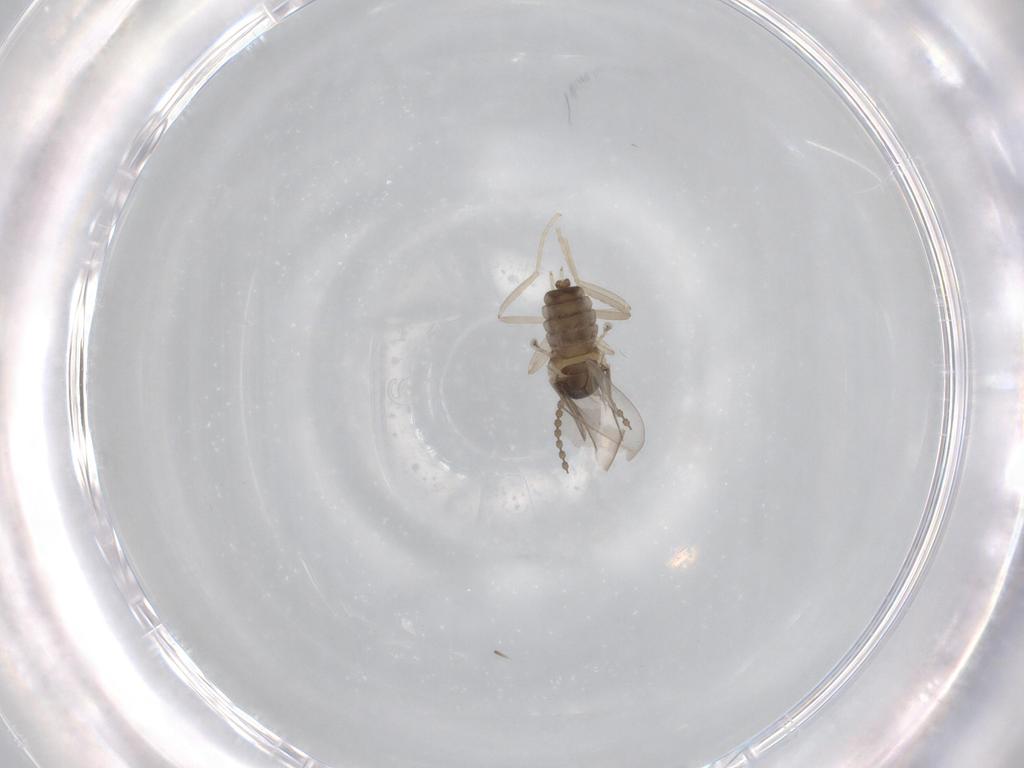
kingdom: Animalia
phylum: Arthropoda
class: Insecta
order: Diptera
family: Cecidomyiidae
